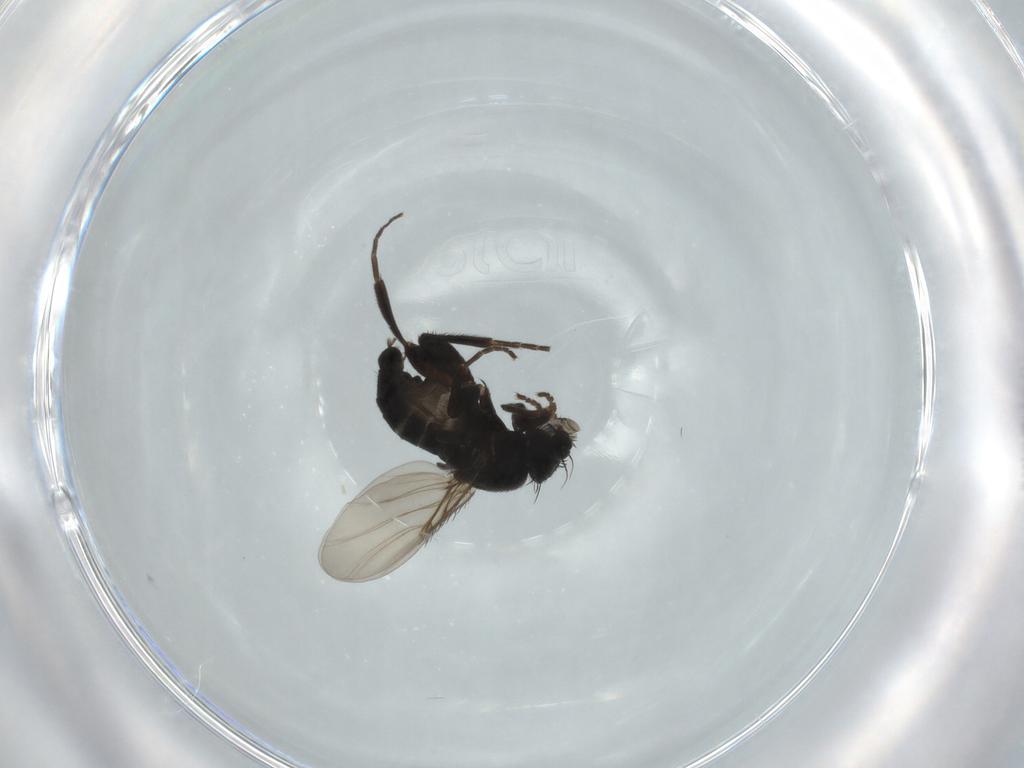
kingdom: Animalia
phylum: Arthropoda
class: Insecta
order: Diptera
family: Phoridae
